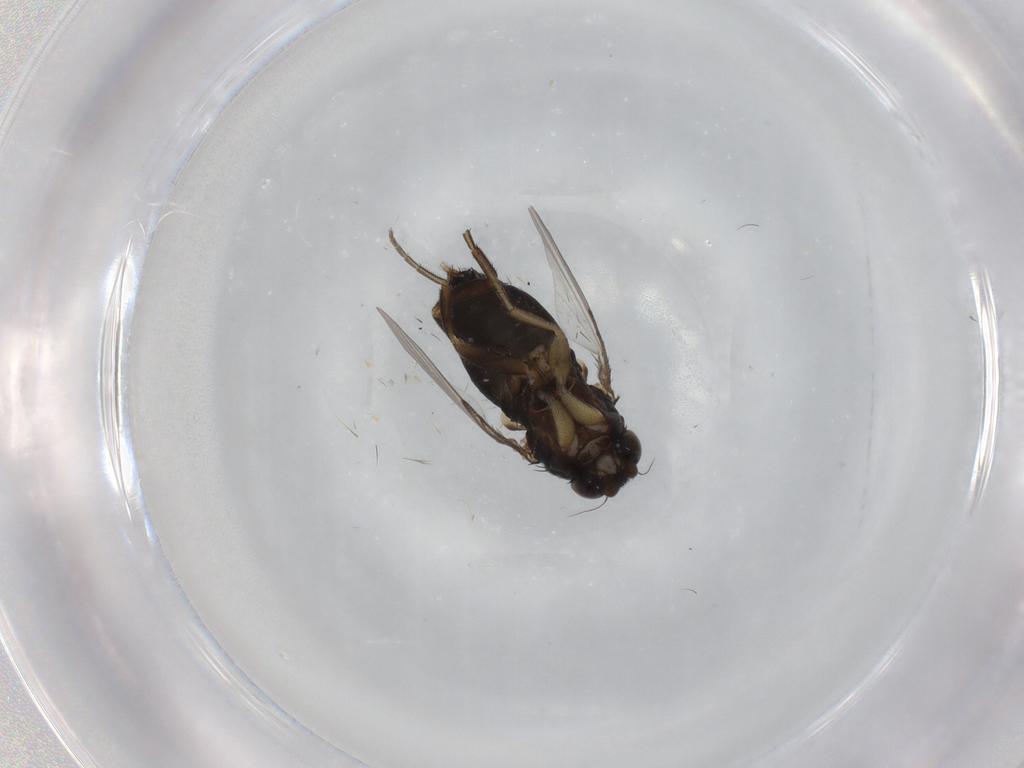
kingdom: Animalia
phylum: Arthropoda
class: Insecta
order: Diptera
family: Phoridae
